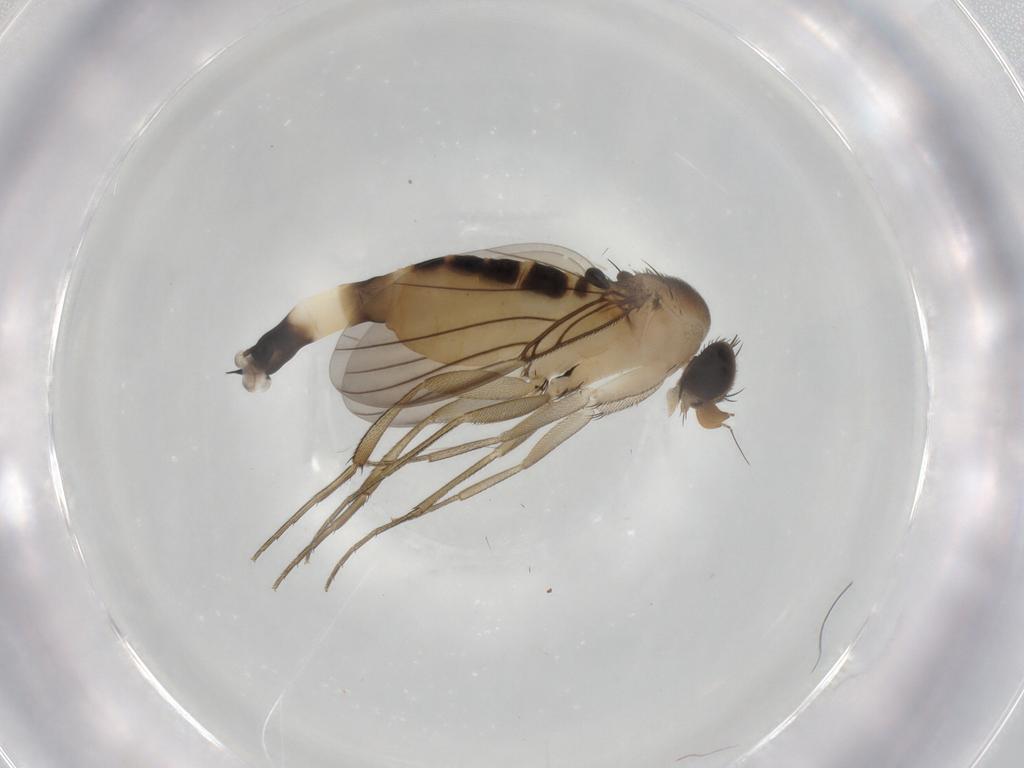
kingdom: Animalia
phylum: Arthropoda
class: Insecta
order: Diptera
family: Phoridae
